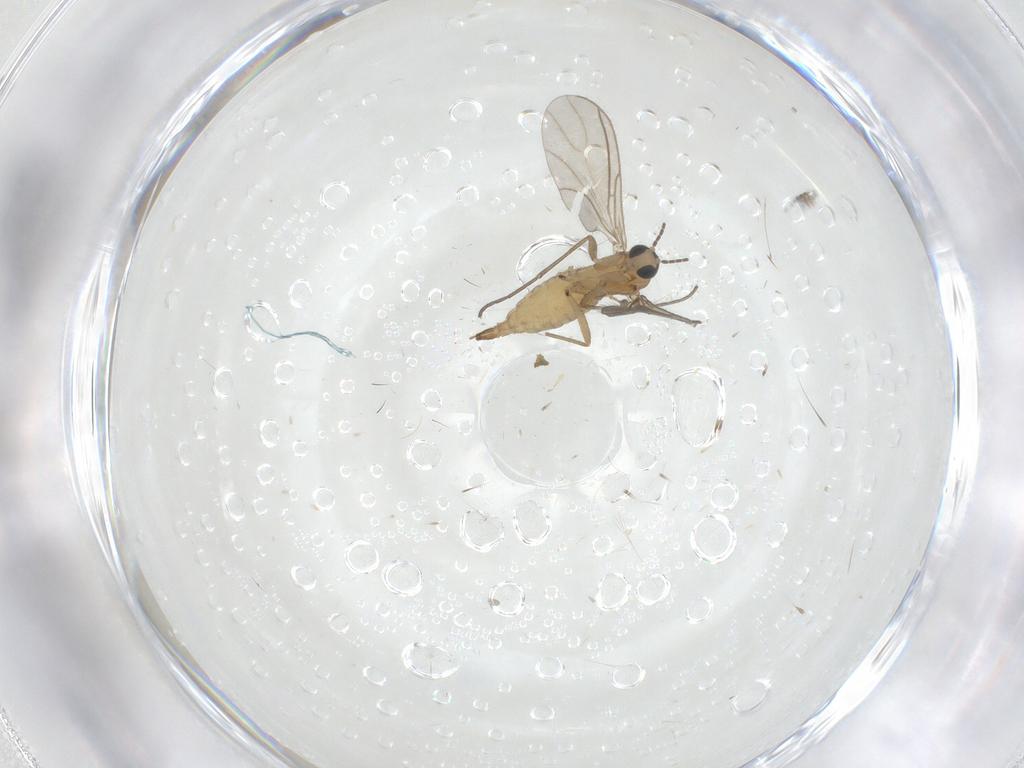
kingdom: Animalia
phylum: Arthropoda
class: Insecta
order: Diptera
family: Sciaridae
